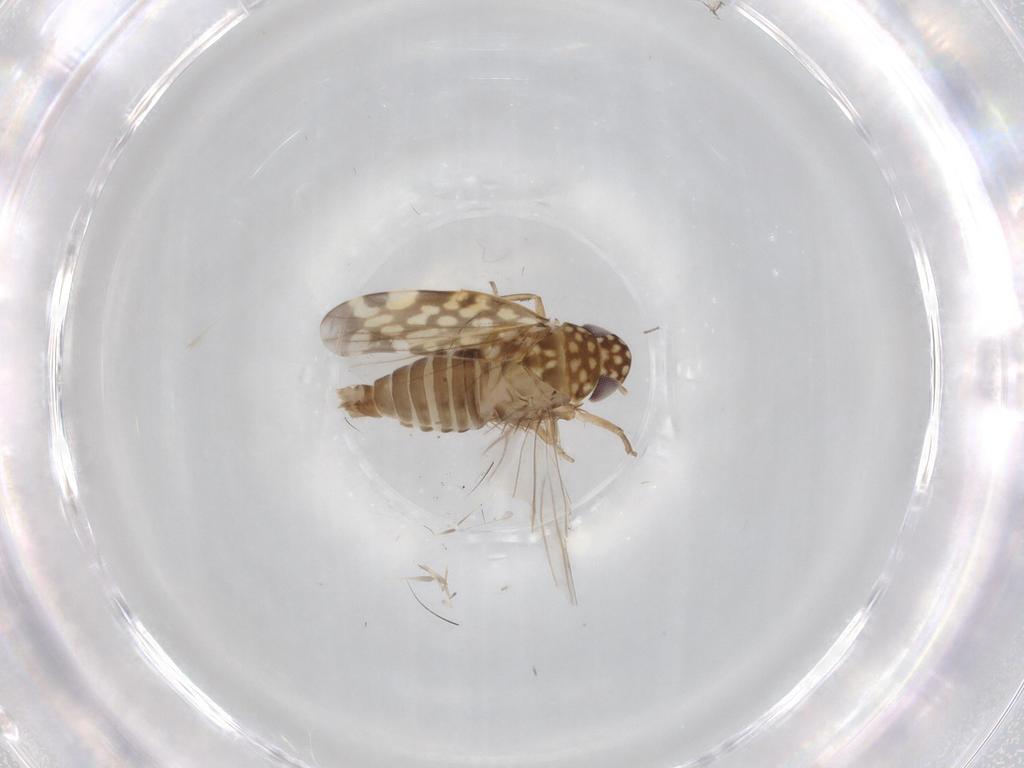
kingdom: Animalia
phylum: Arthropoda
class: Insecta
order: Hemiptera
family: Cicadellidae
